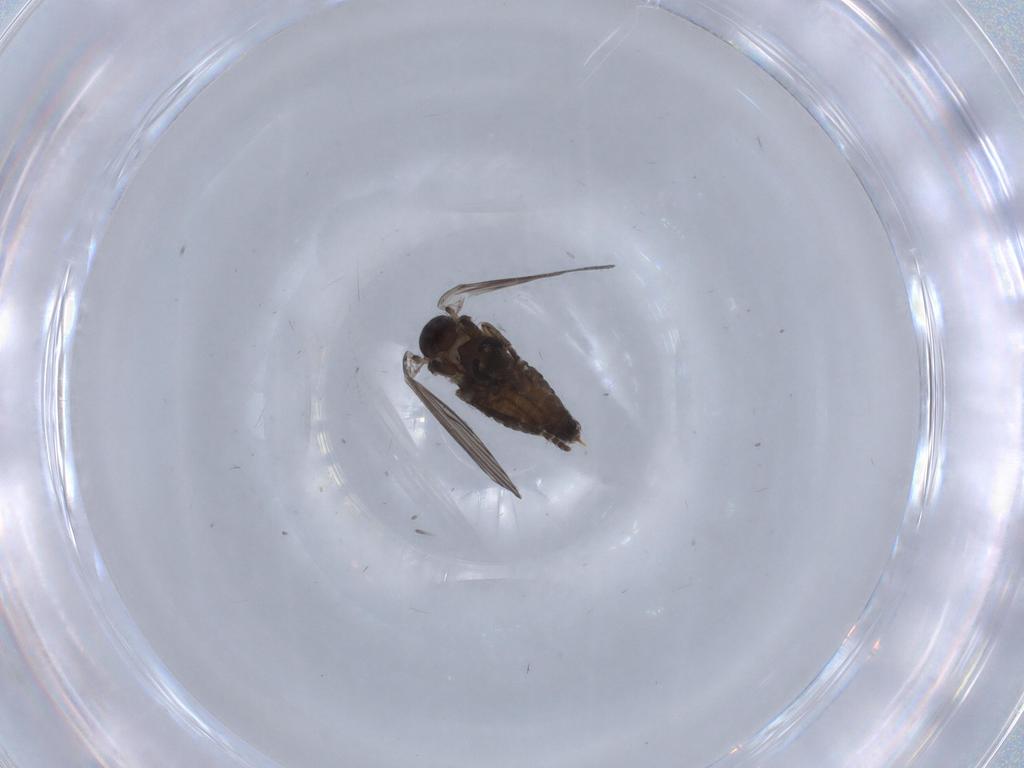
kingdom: Animalia
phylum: Arthropoda
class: Insecta
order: Diptera
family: Psychodidae
